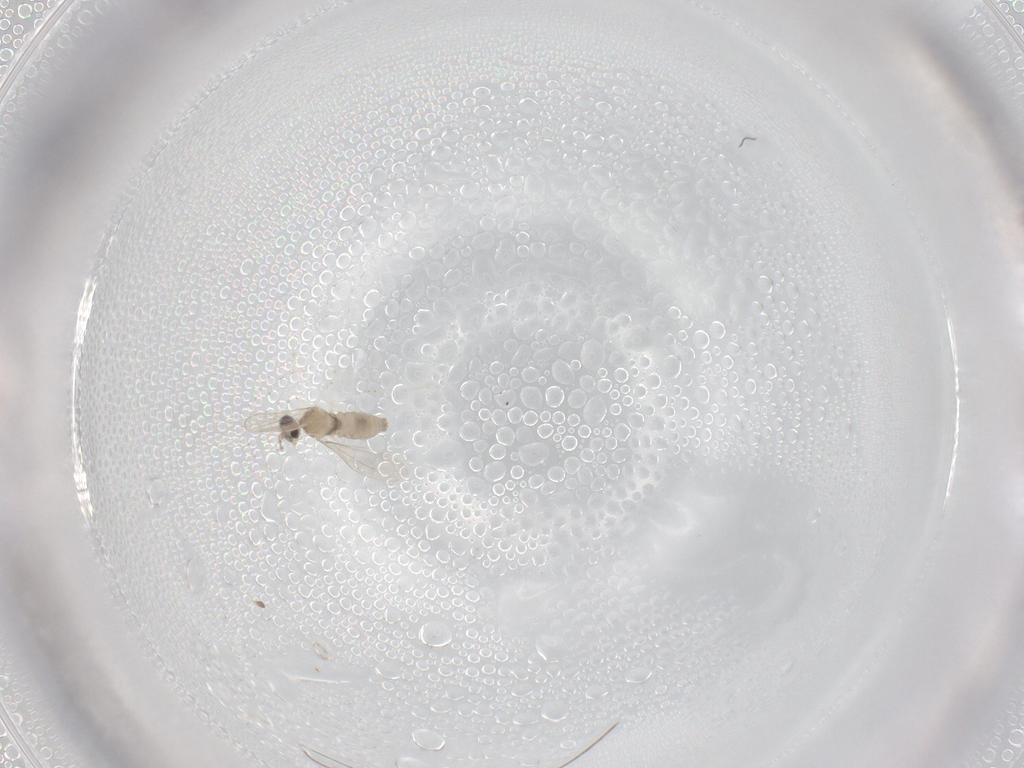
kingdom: Animalia
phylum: Arthropoda
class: Insecta
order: Diptera
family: Cecidomyiidae
